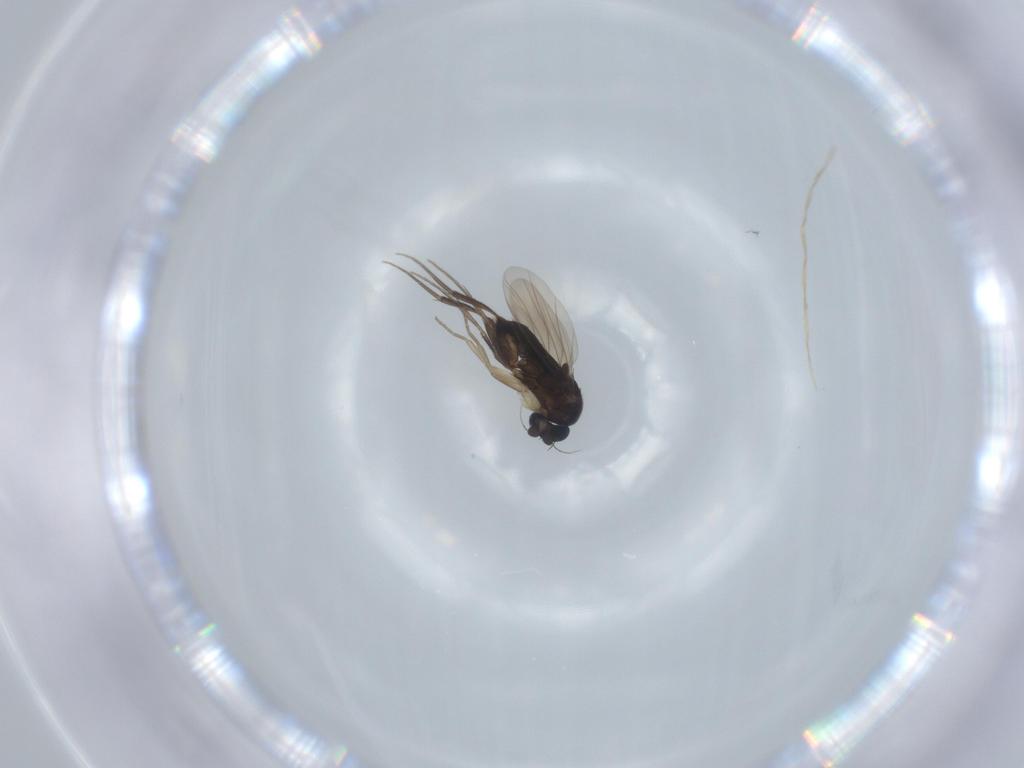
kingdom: Animalia
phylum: Arthropoda
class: Insecta
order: Diptera
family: Phoridae
